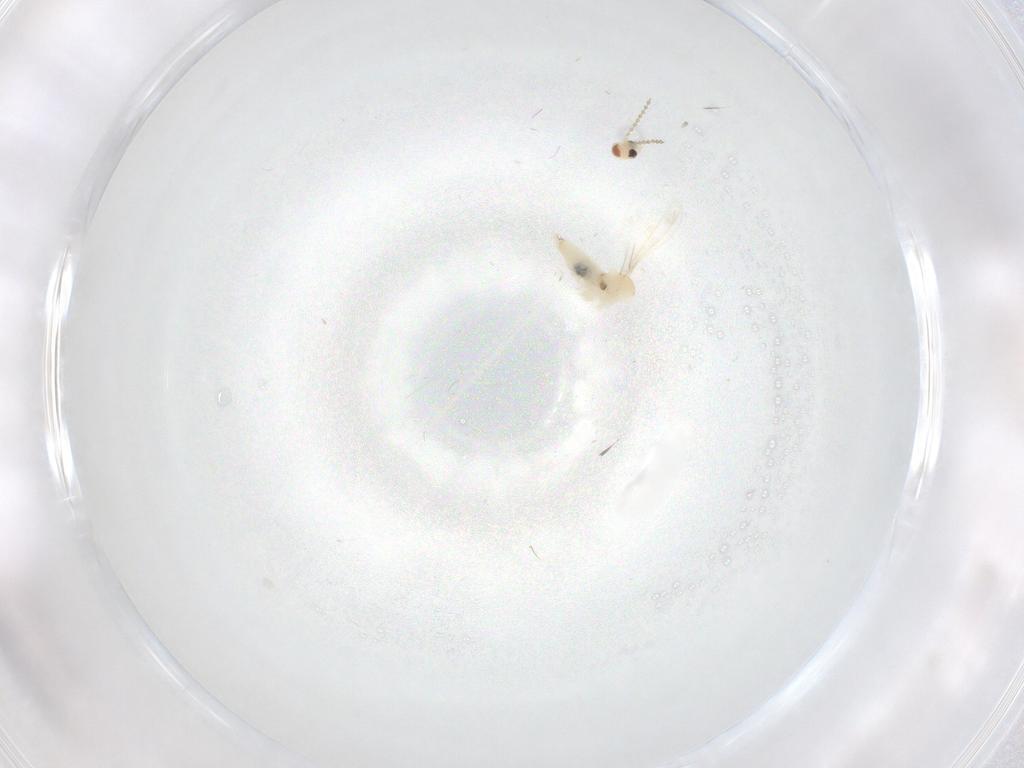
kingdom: Animalia
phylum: Arthropoda
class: Insecta
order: Diptera
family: Cecidomyiidae
